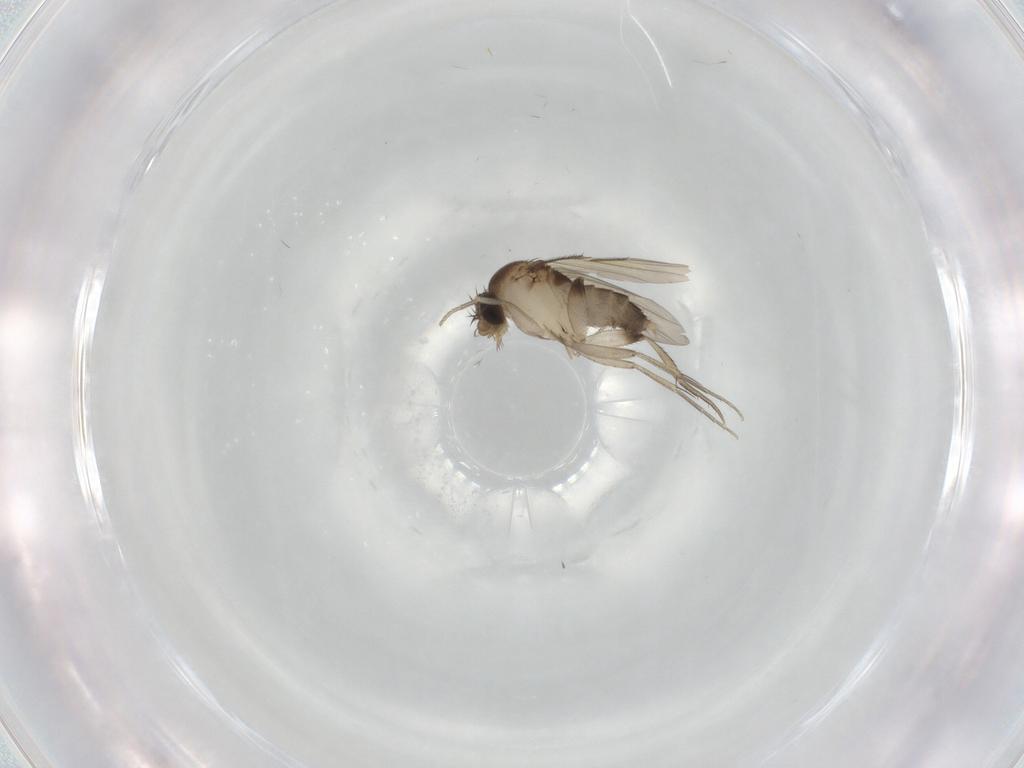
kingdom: Animalia
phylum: Arthropoda
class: Insecta
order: Diptera
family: Phoridae
